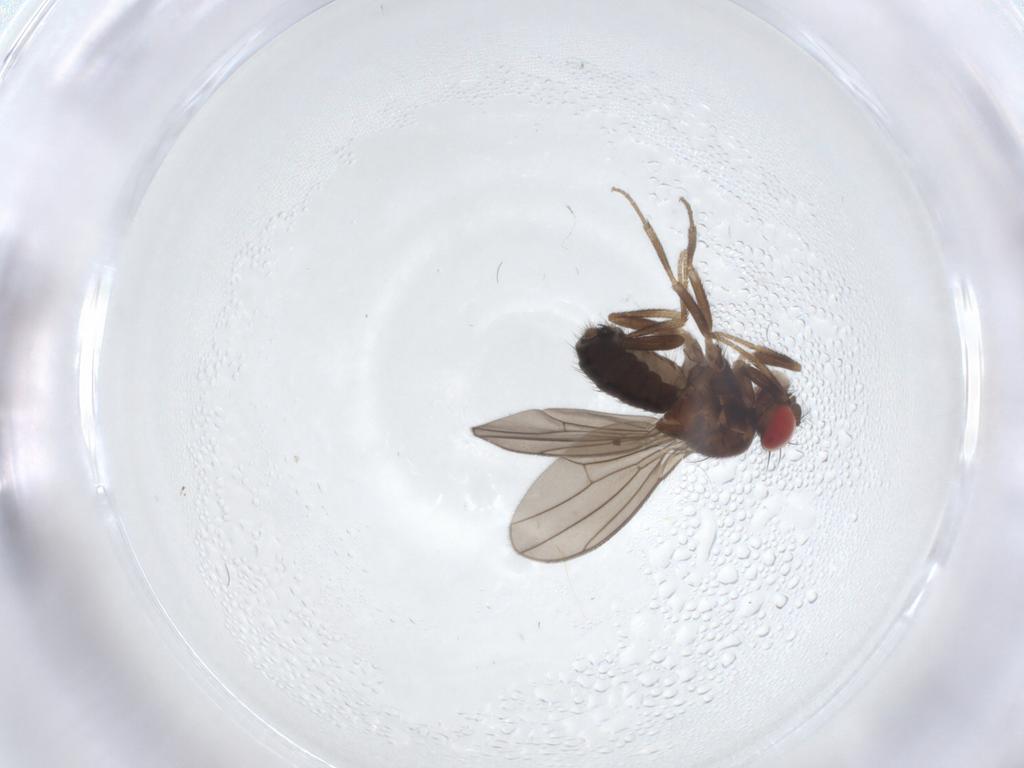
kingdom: Animalia
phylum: Arthropoda
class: Insecta
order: Diptera
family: Drosophilidae
